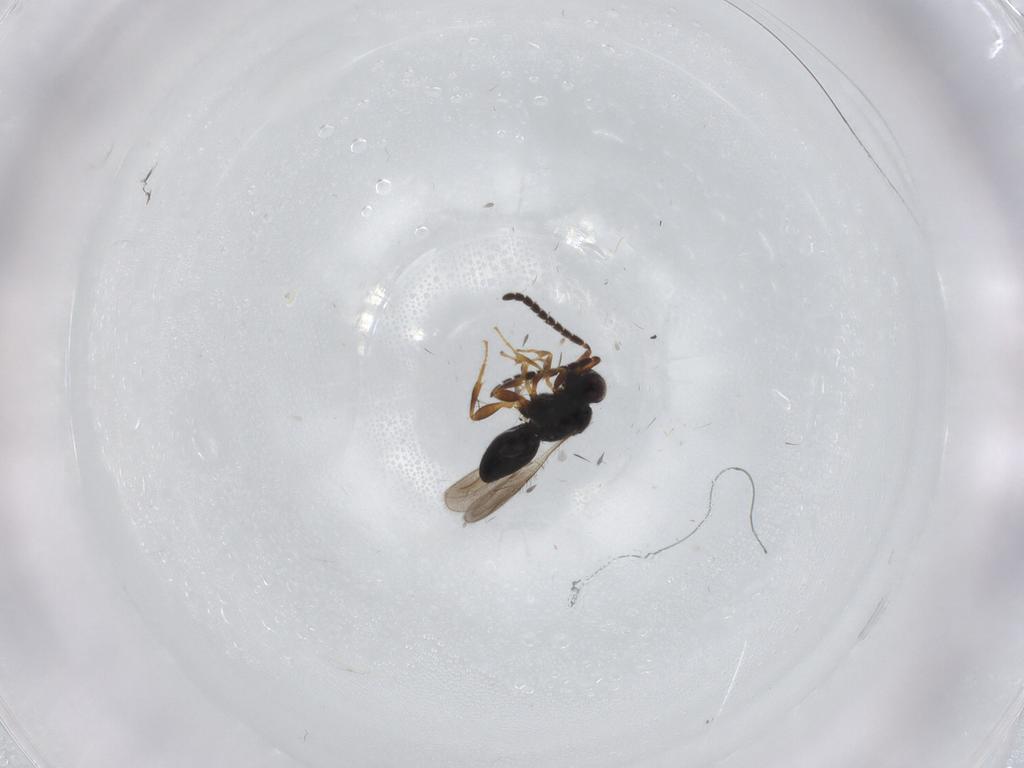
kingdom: Animalia
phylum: Arthropoda
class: Insecta
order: Hymenoptera
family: Ceraphronidae
